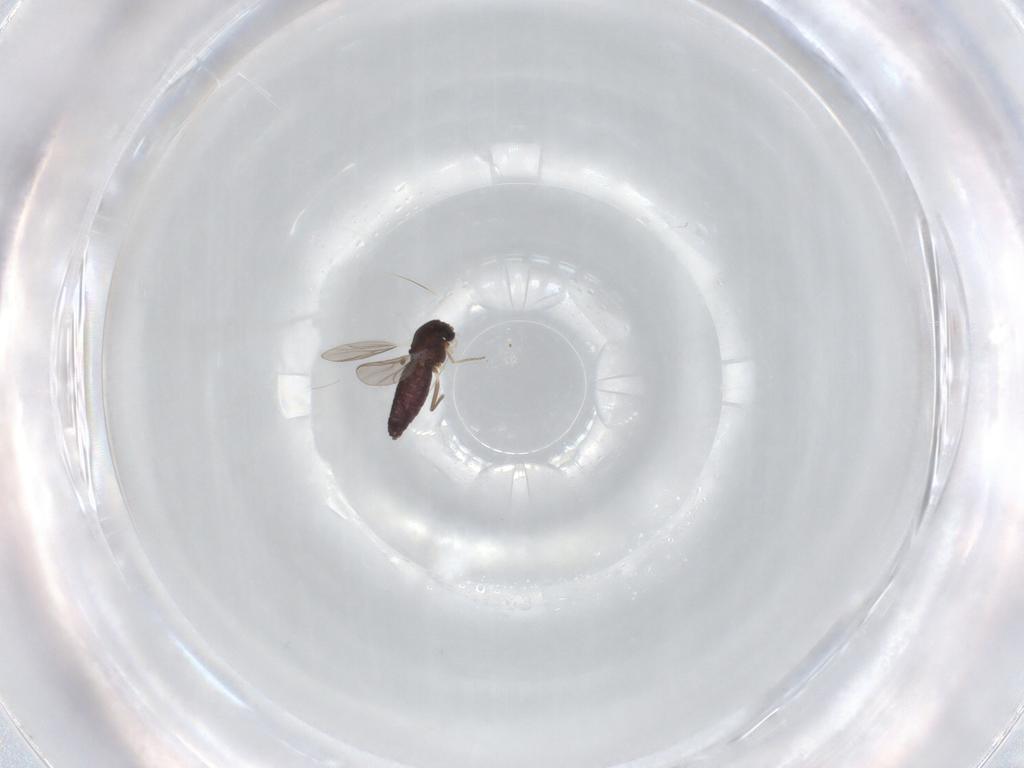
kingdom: Animalia
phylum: Arthropoda
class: Insecta
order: Diptera
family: Chironomidae
